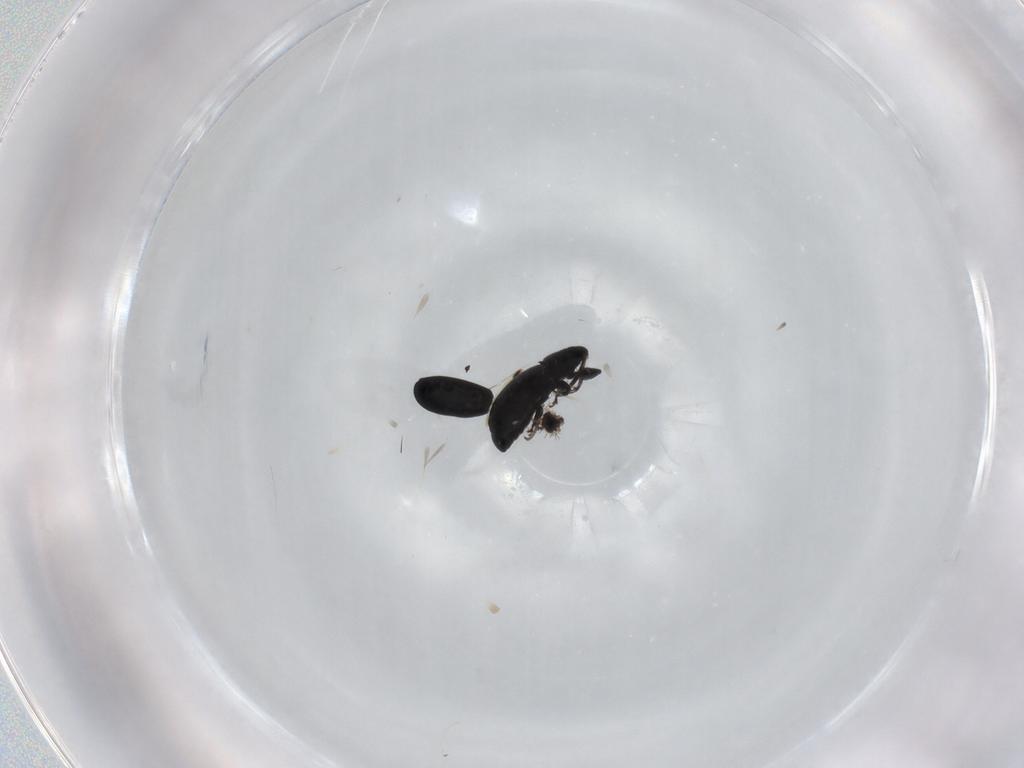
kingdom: Animalia
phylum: Arthropoda
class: Insecta
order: Coleoptera
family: Curculionidae
